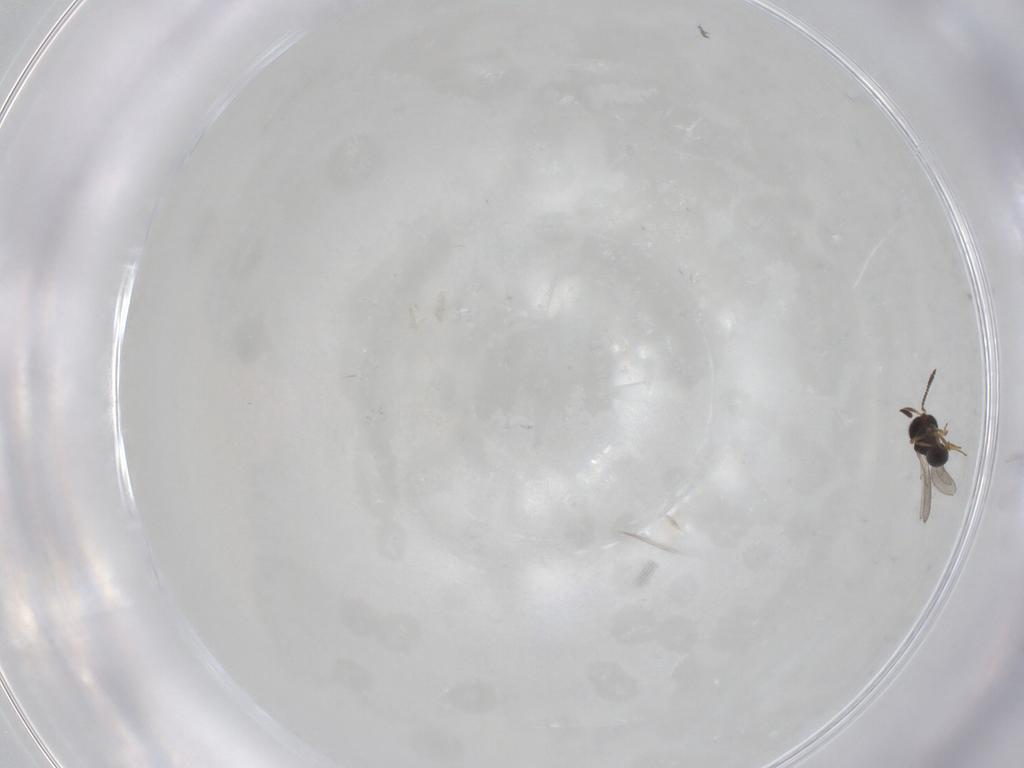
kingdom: Animalia
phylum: Arthropoda
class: Insecta
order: Hymenoptera
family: Scelionidae
